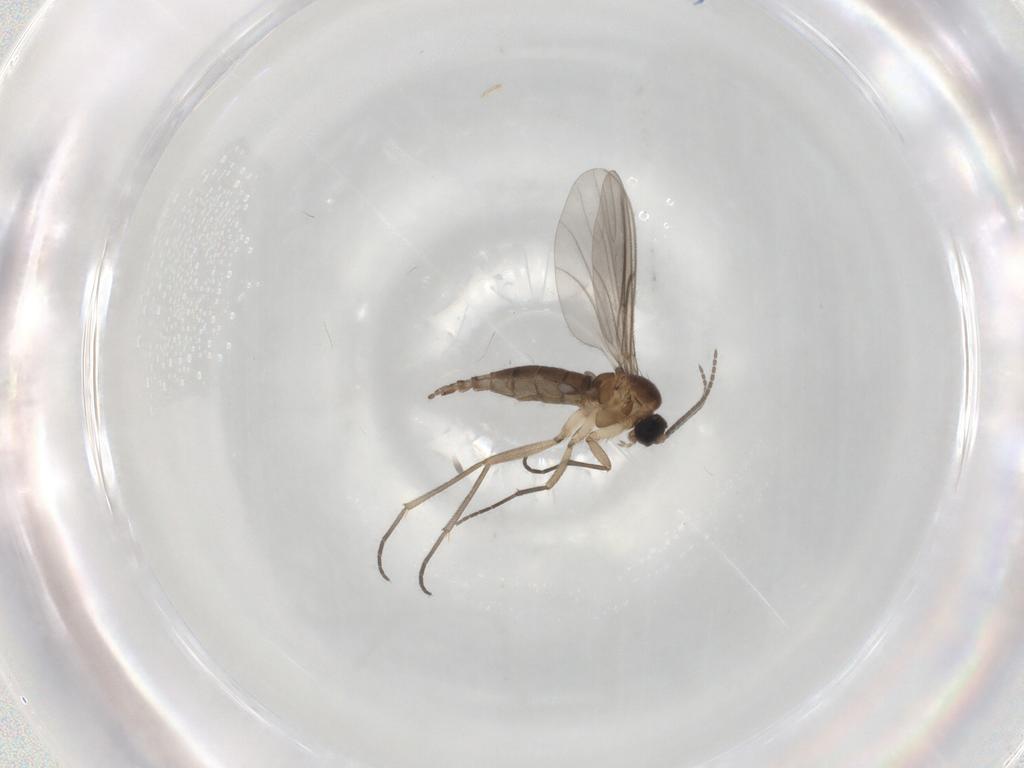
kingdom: Animalia
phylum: Arthropoda
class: Insecta
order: Diptera
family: Sciaridae
